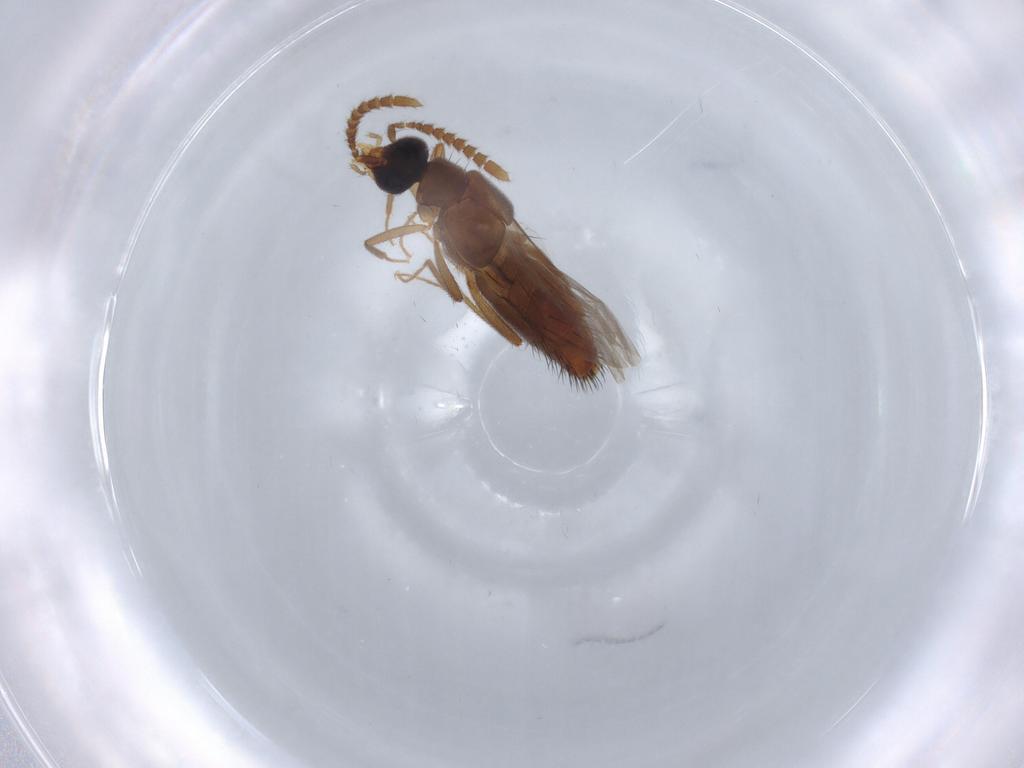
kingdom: Animalia
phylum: Arthropoda
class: Insecta
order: Coleoptera
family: Staphylinidae
